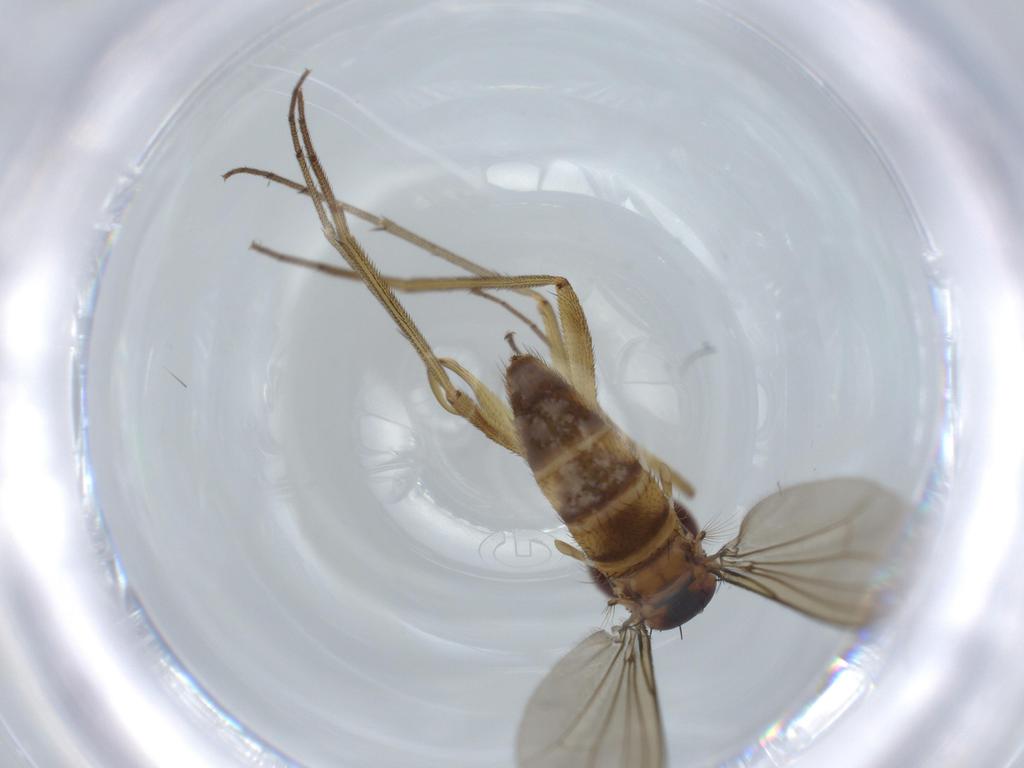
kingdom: Animalia
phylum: Arthropoda
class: Insecta
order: Diptera
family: Dolichopodidae
